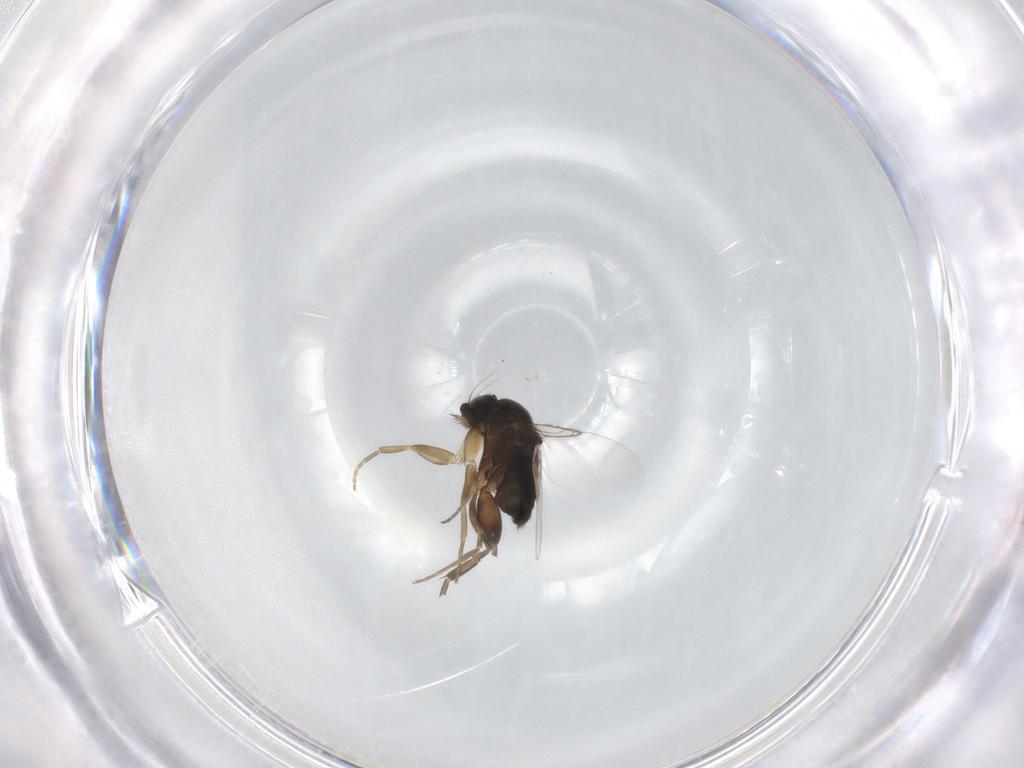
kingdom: Animalia
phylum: Arthropoda
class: Insecta
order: Diptera
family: Phoridae
